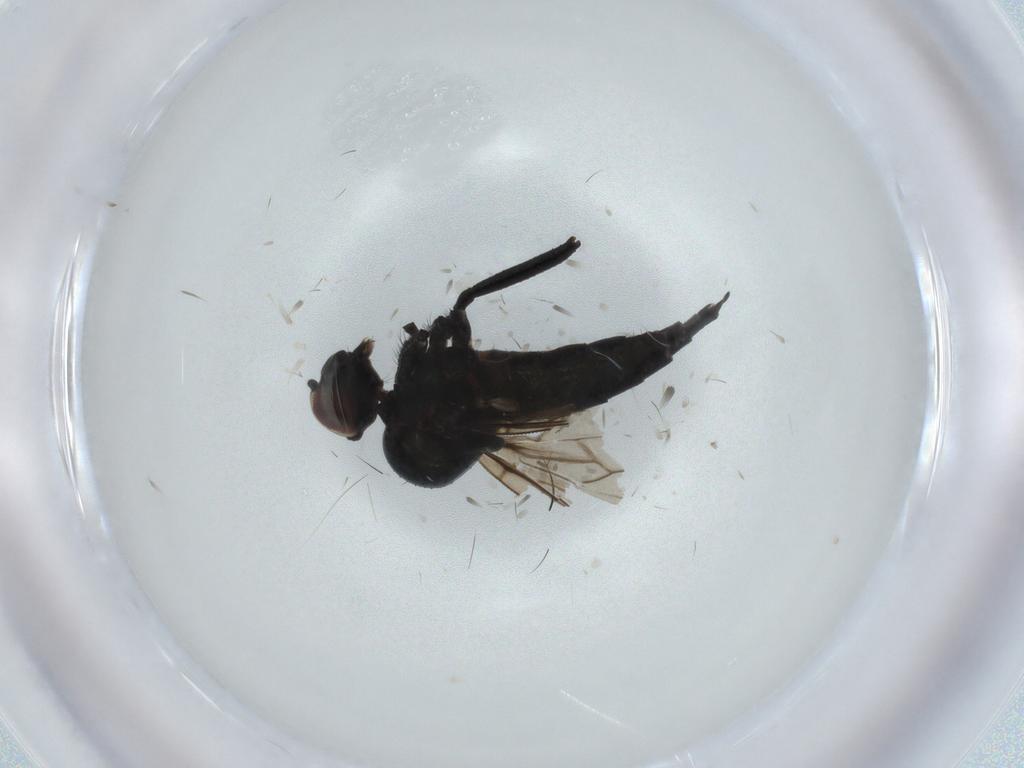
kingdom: Animalia
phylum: Arthropoda
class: Insecta
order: Diptera
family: Hybotidae
